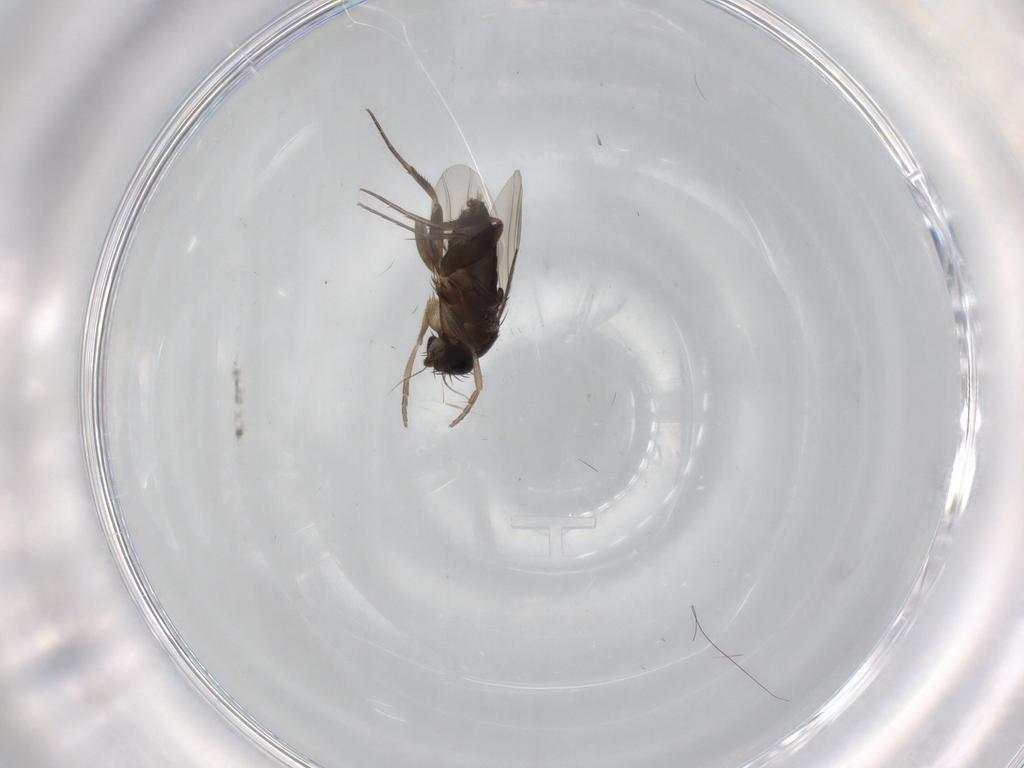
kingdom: Animalia
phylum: Arthropoda
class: Insecta
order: Diptera
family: Phoridae
